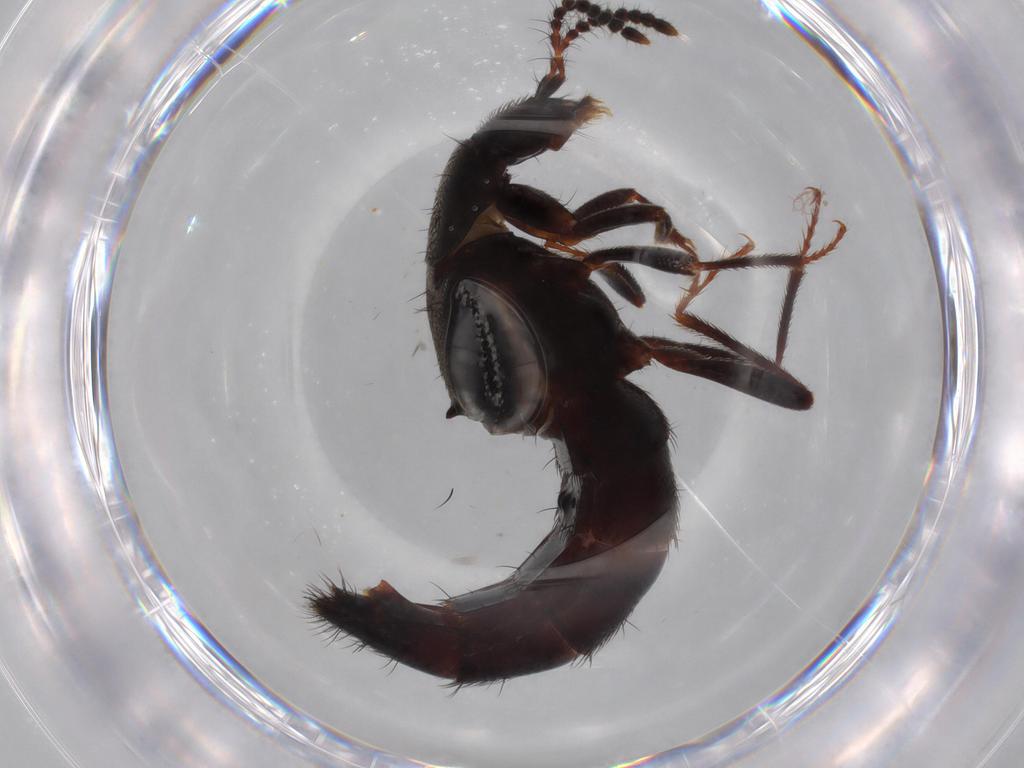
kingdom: Animalia
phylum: Arthropoda
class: Insecta
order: Coleoptera
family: Staphylinidae
